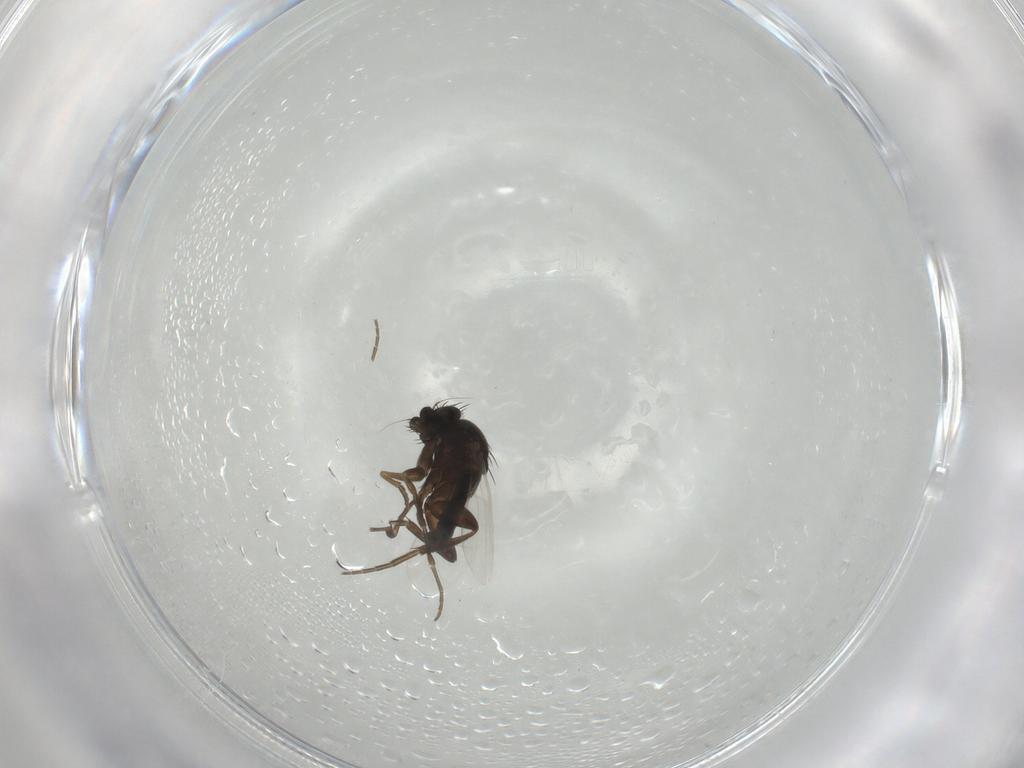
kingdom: Animalia
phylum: Arthropoda
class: Insecta
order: Diptera
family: Phoridae
